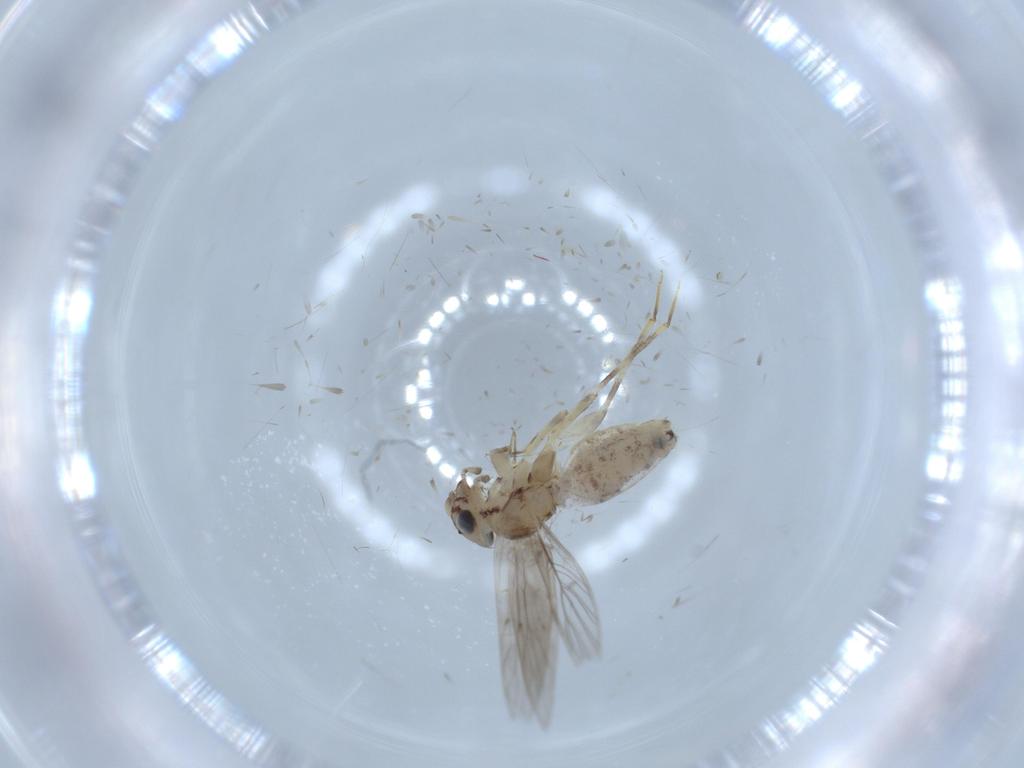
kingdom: Animalia
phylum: Arthropoda
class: Insecta
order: Psocodea
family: Lepidopsocidae
